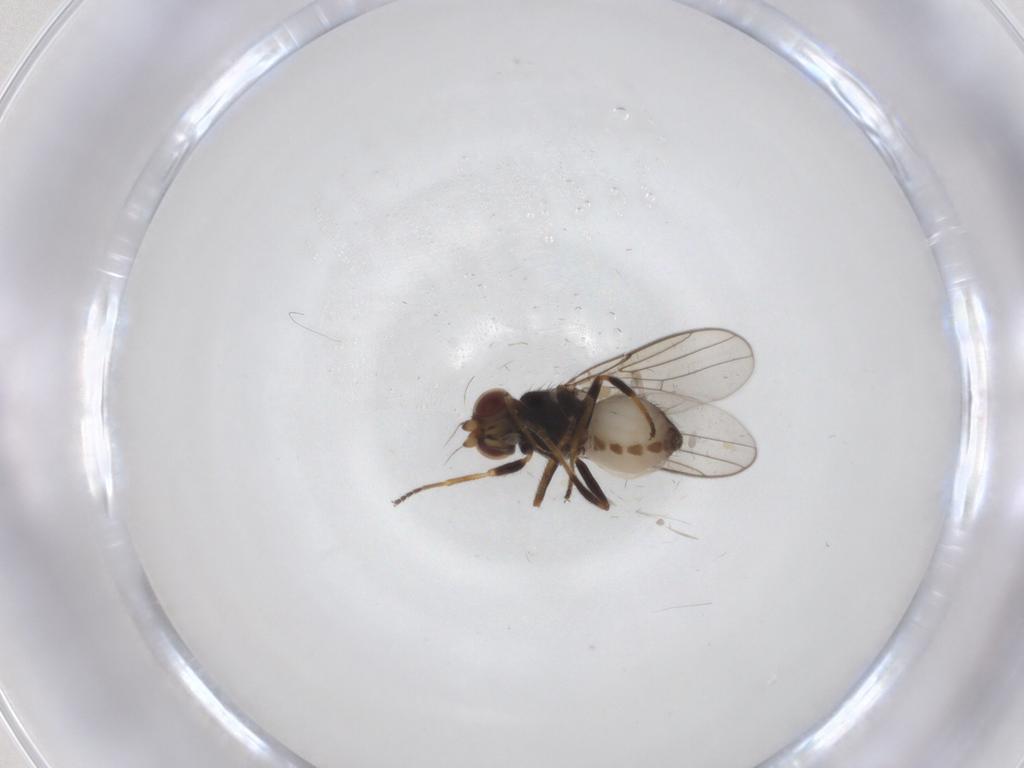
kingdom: Animalia
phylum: Arthropoda
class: Insecta
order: Diptera
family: Chloropidae
